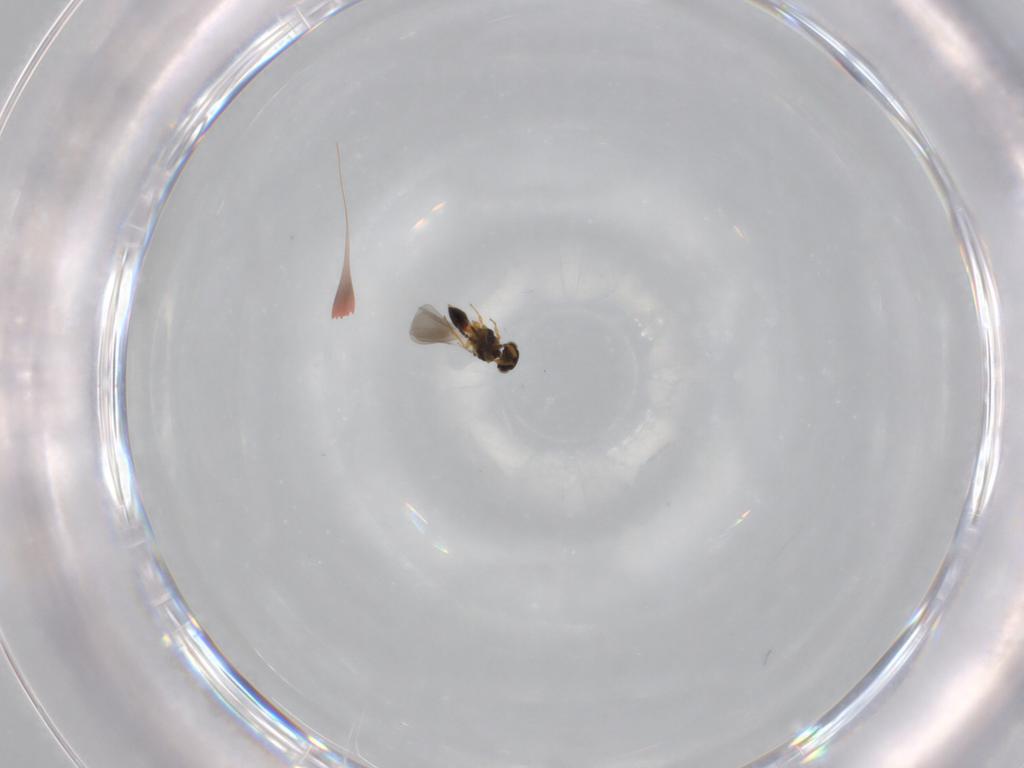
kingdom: Animalia
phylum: Arthropoda
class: Insecta
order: Hymenoptera
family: Platygastridae
